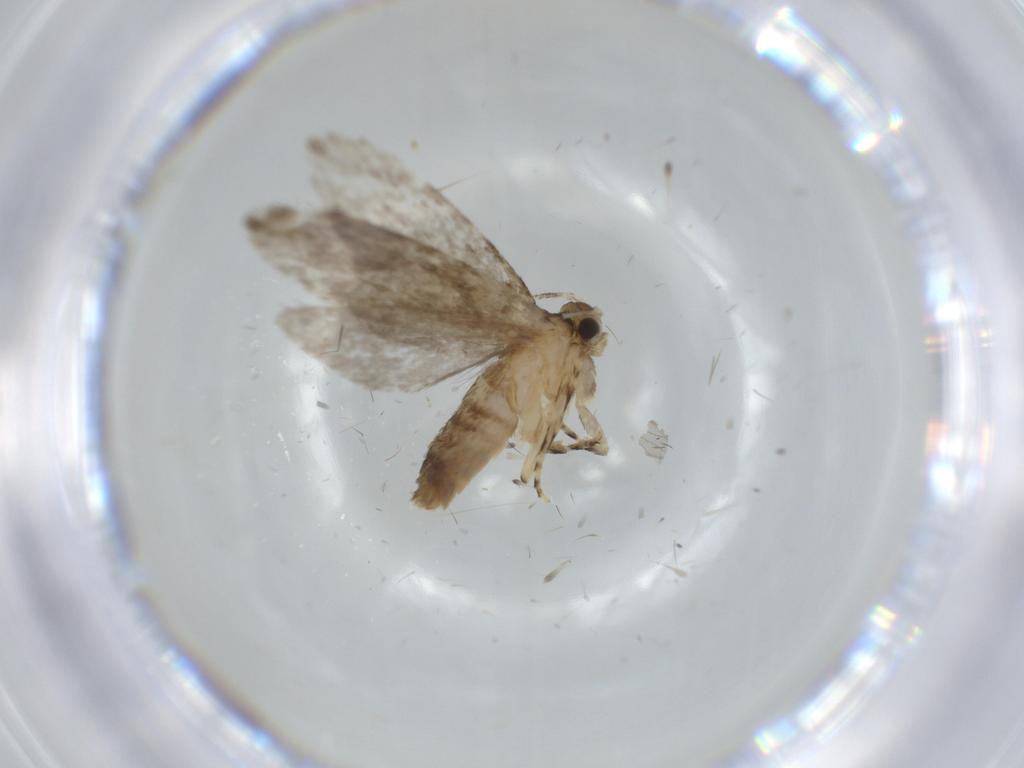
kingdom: Animalia
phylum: Arthropoda
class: Insecta
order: Lepidoptera
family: Tineidae
